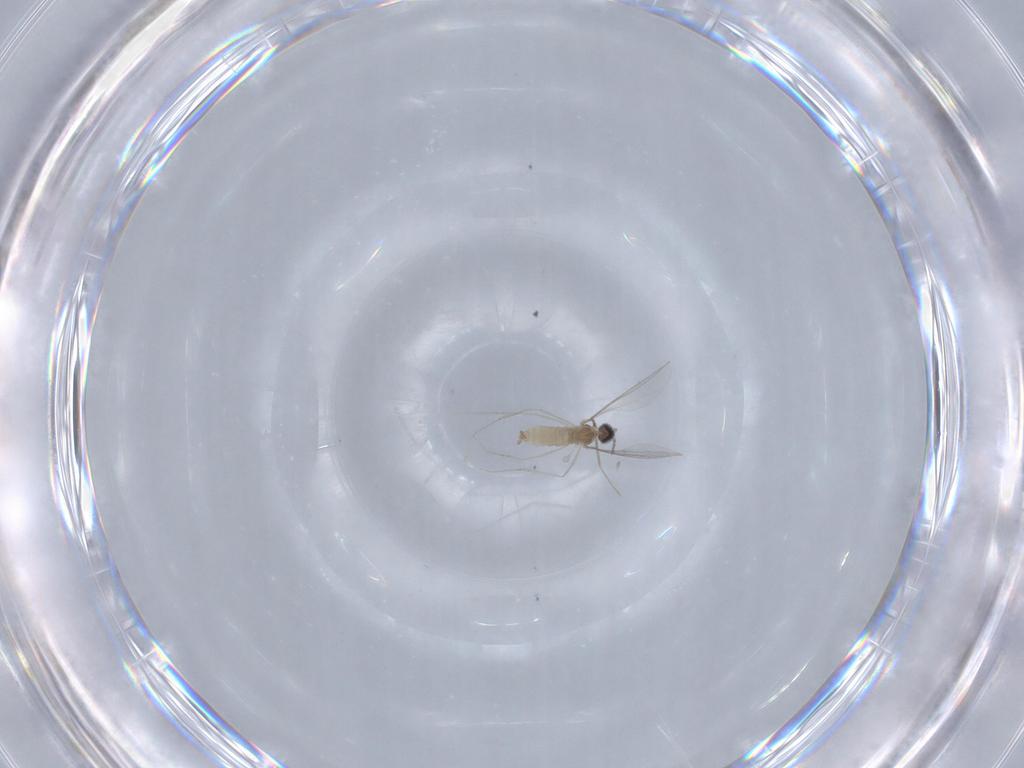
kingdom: Animalia
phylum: Arthropoda
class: Insecta
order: Diptera
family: Cecidomyiidae
